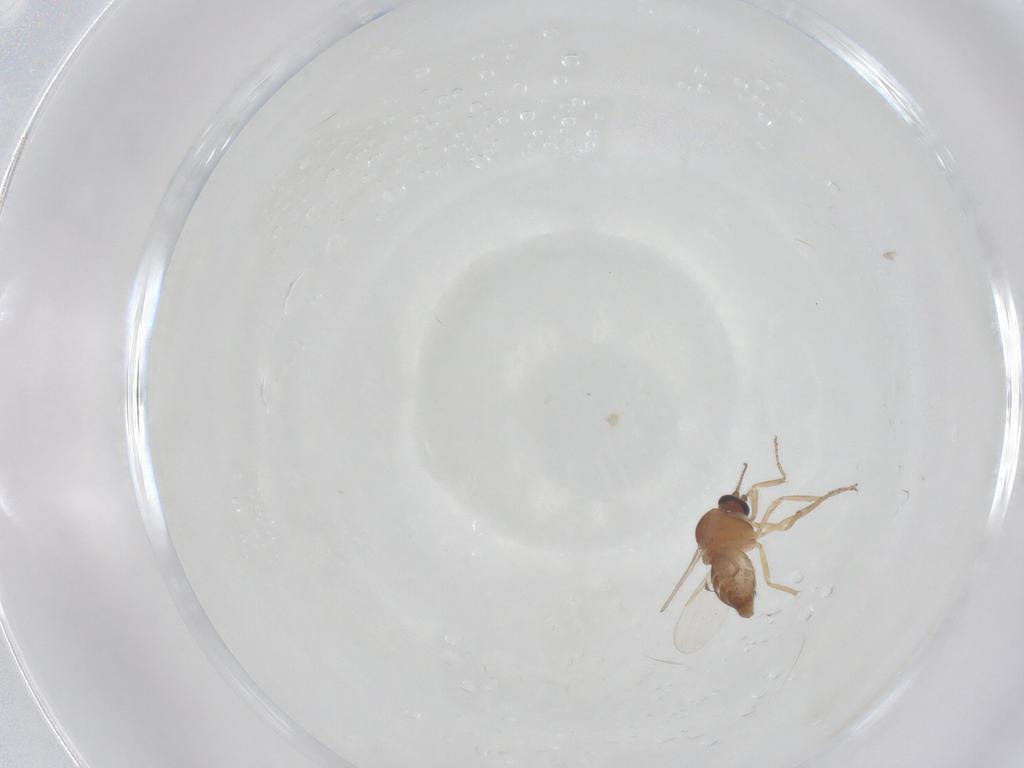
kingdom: Animalia
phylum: Arthropoda
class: Insecta
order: Diptera
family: Ceratopogonidae
